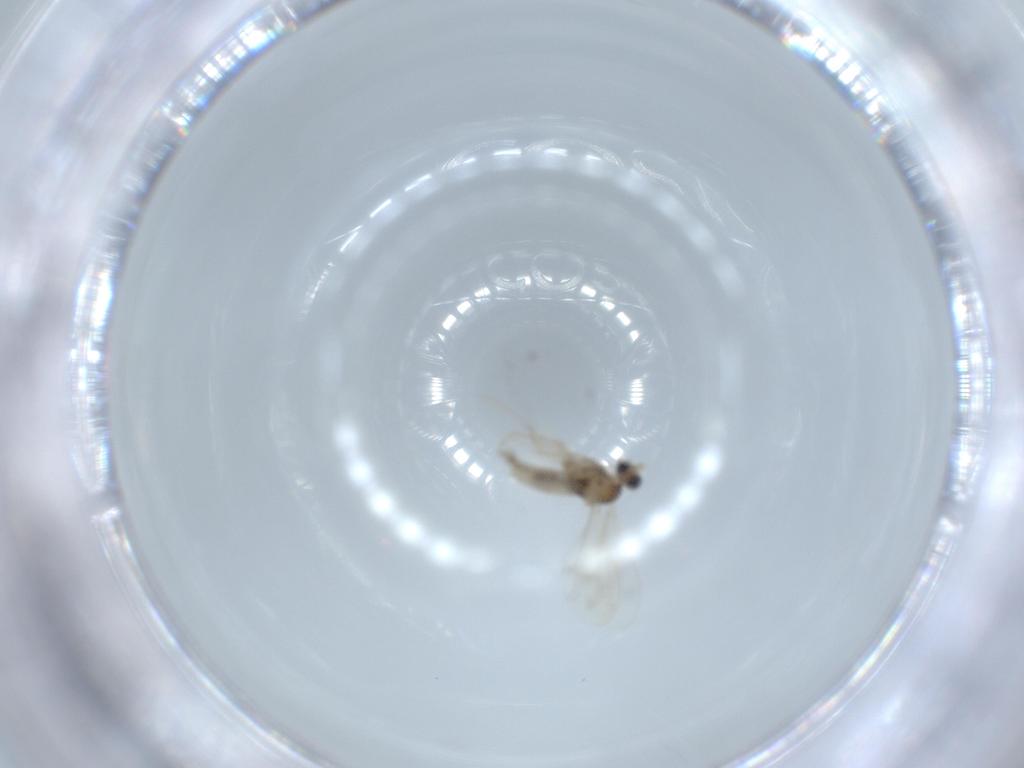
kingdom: Animalia
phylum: Arthropoda
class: Insecta
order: Diptera
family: Cecidomyiidae
